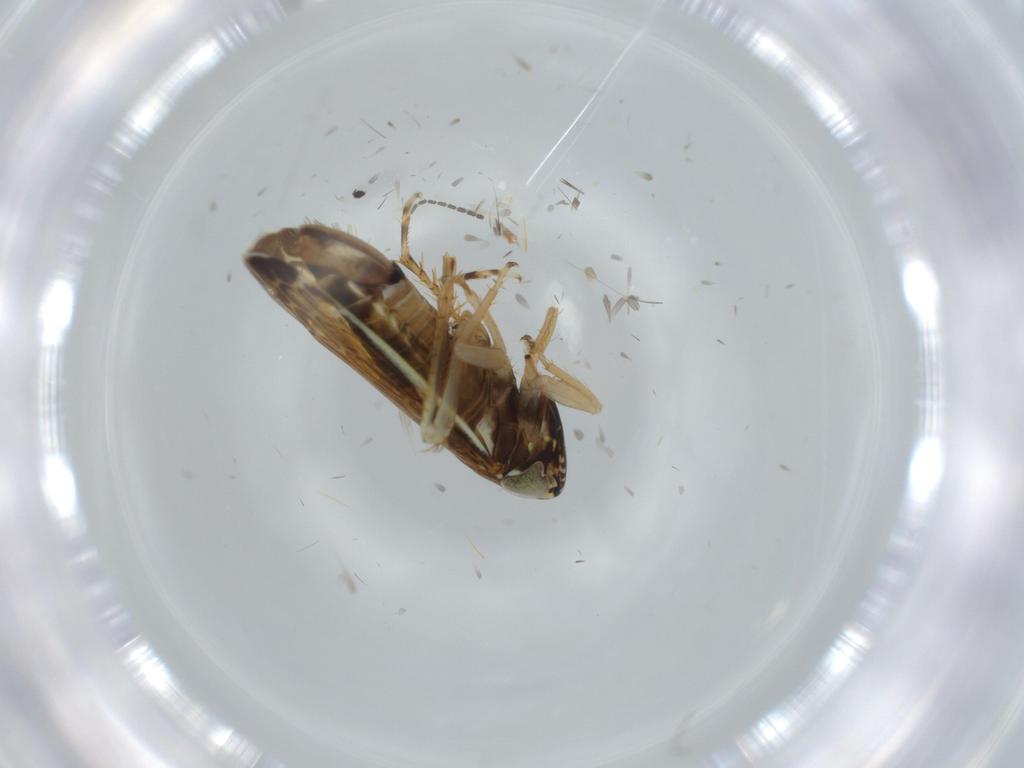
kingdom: Animalia
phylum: Arthropoda
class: Insecta
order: Hemiptera
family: Cicadellidae
